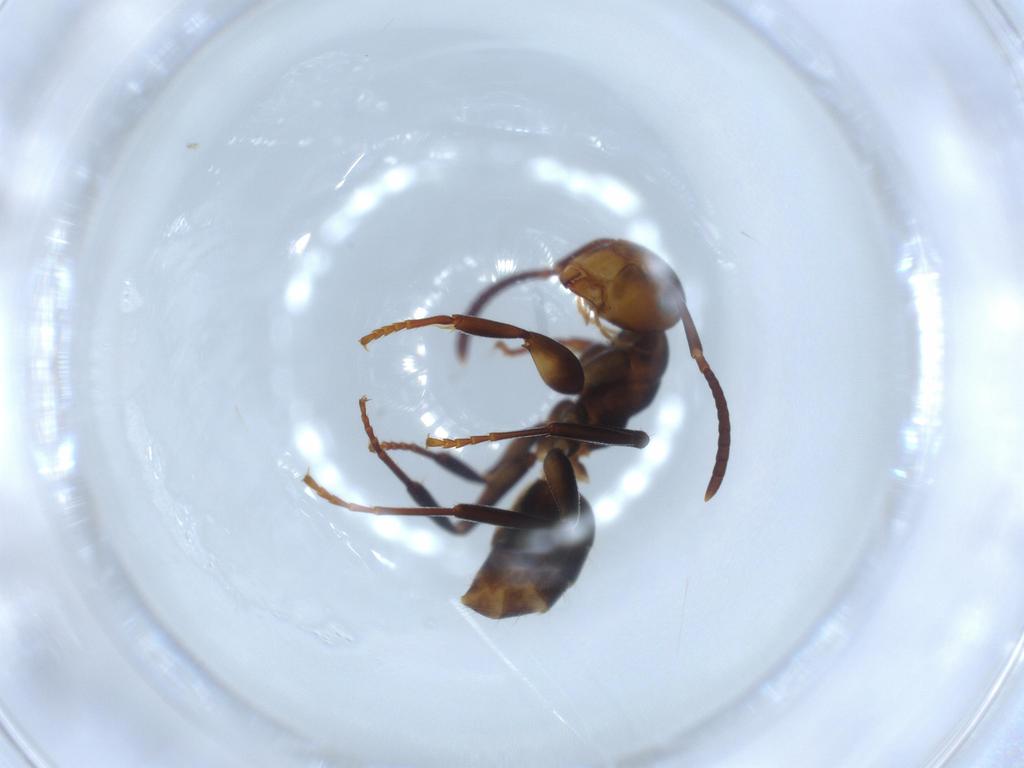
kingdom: Animalia
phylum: Arthropoda
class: Insecta
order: Hymenoptera
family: Formicidae
